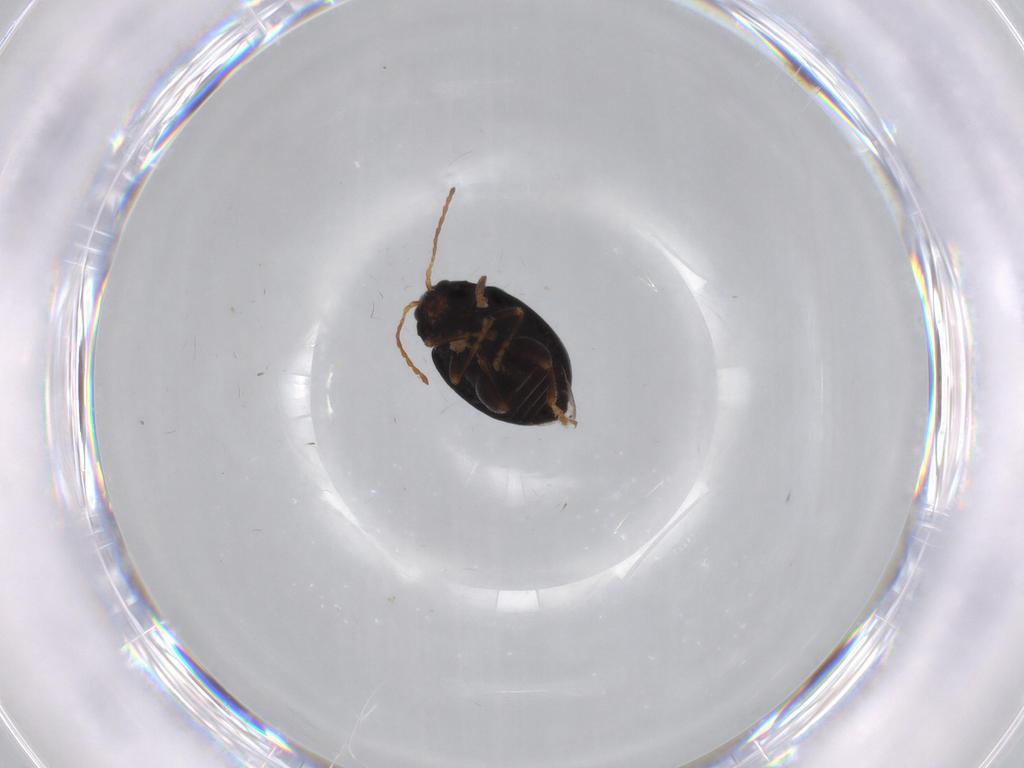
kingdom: Animalia
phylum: Arthropoda
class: Insecta
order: Coleoptera
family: Chrysomelidae
